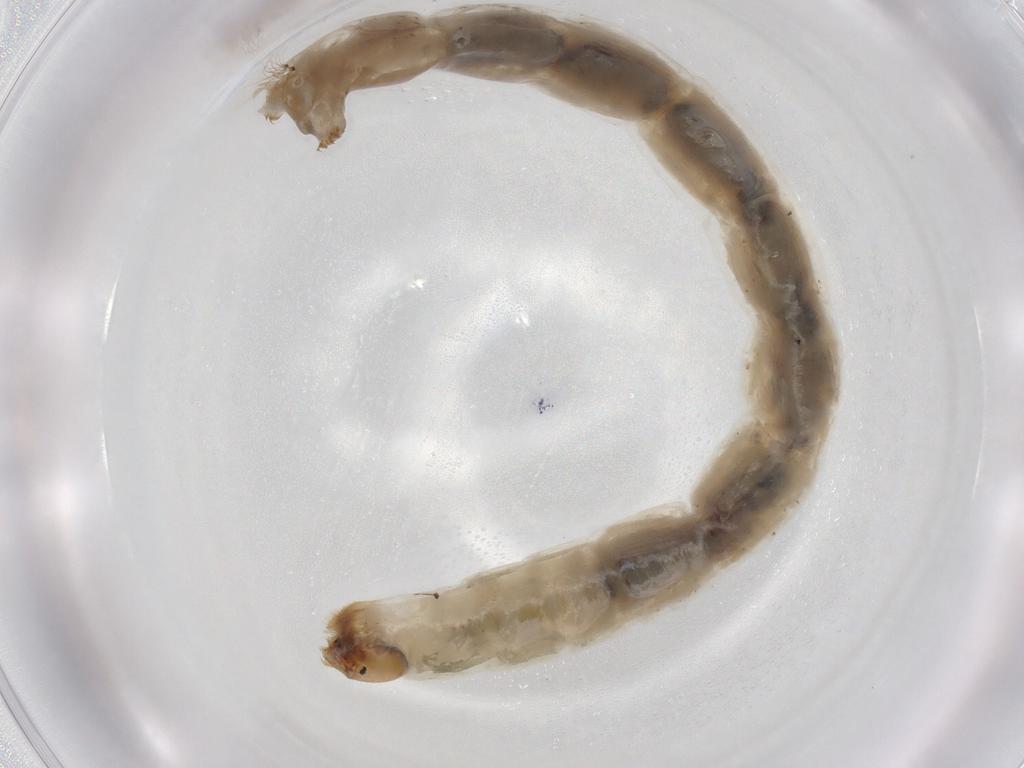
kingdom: Animalia
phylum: Arthropoda
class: Insecta
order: Diptera
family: Chironomidae
